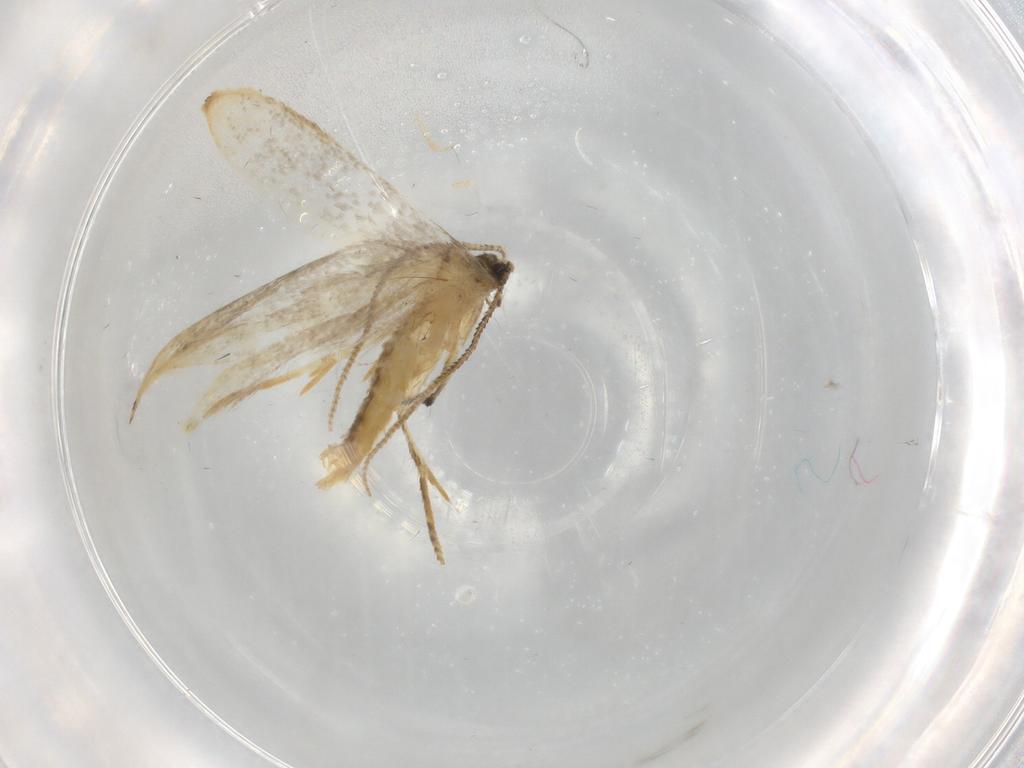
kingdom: Animalia
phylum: Arthropoda
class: Insecta
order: Lepidoptera
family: Tineidae
